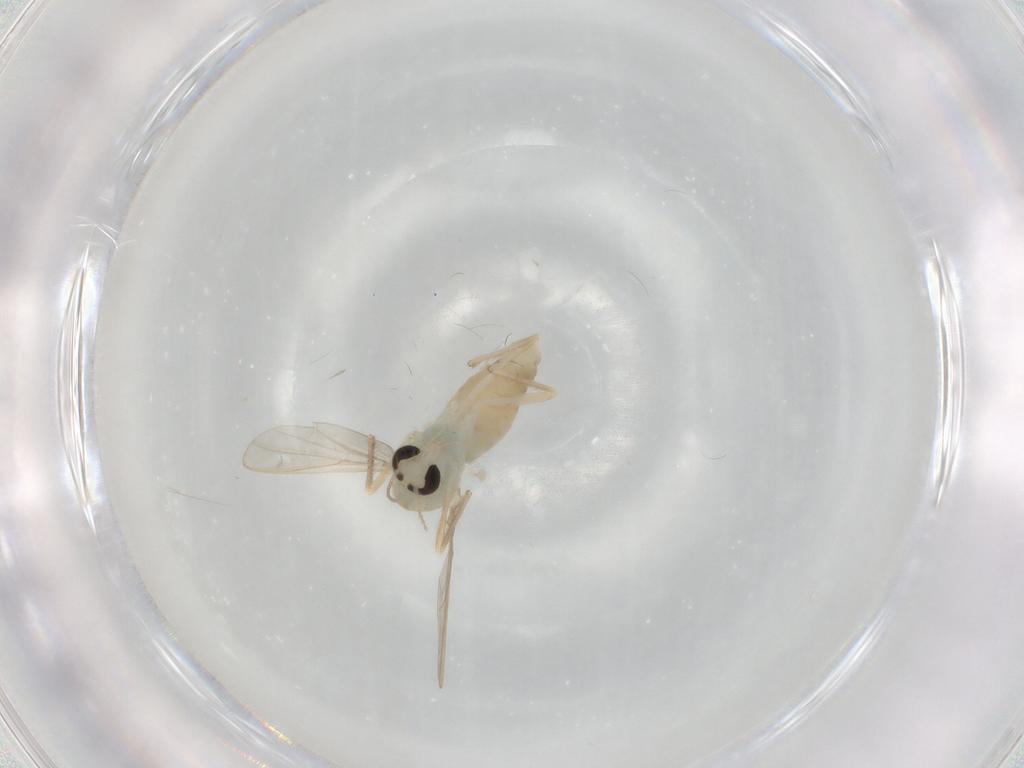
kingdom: Animalia
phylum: Arthropoda
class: Insecta
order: Diptera
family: Chironomidae
